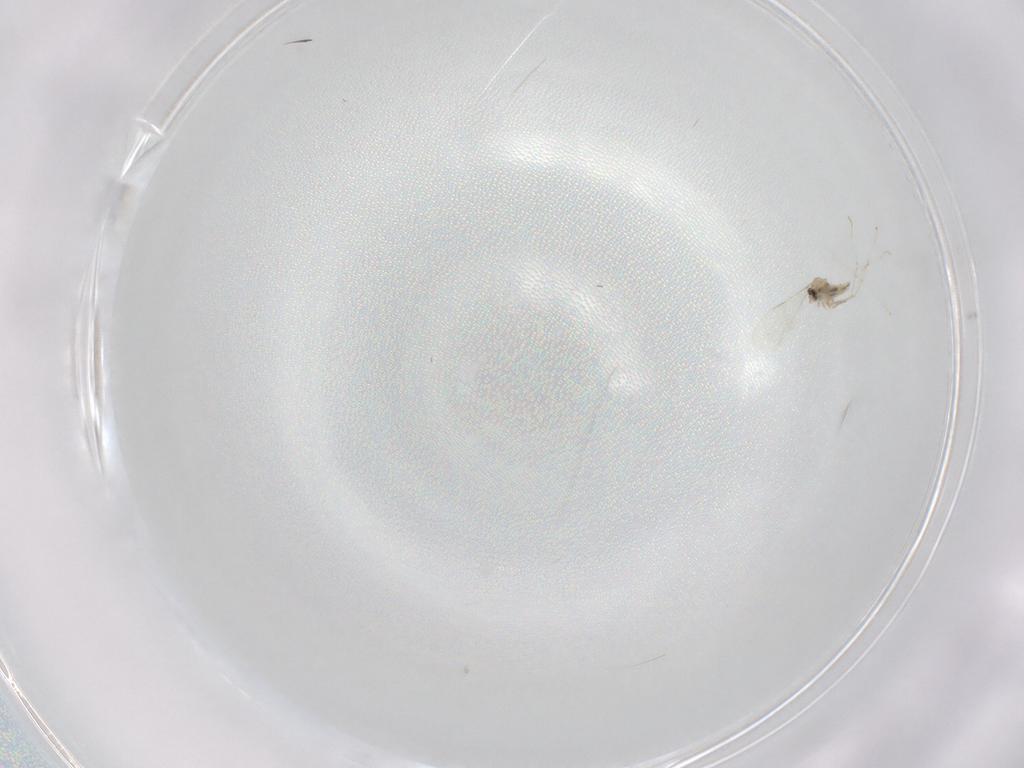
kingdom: Animalia
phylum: Arthropoda
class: Insecta
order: Diptera
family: Cecidomyiidae
